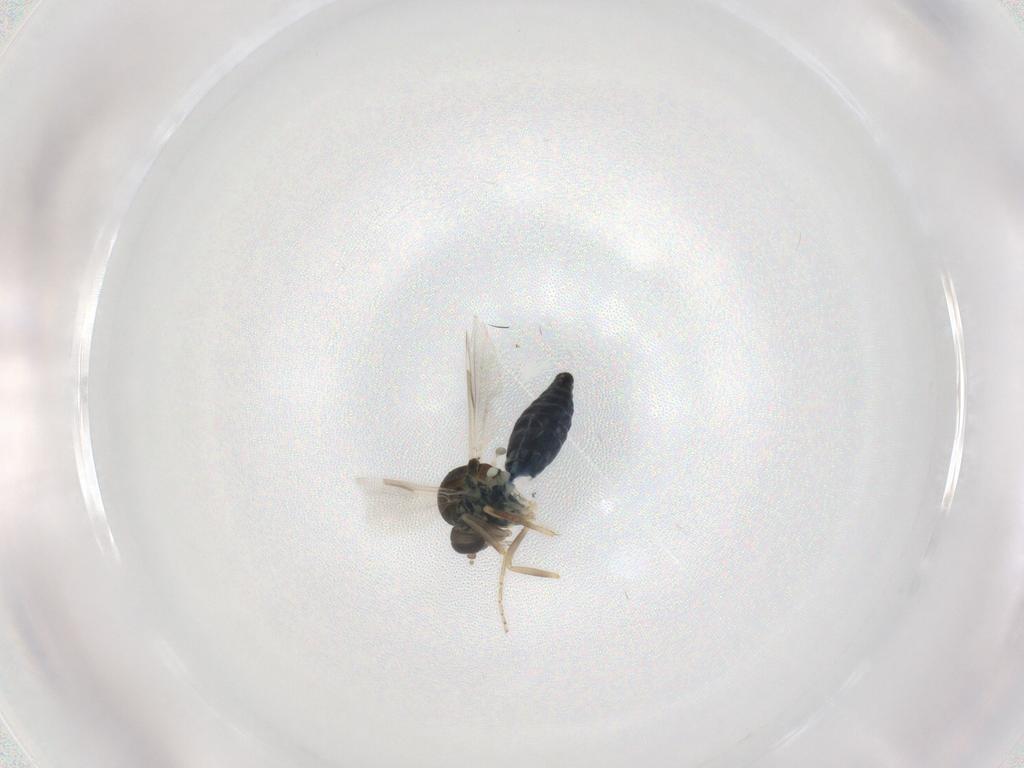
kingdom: Animalia
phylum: Arthropoda
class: Insecta
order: Diptera
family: Ceratopogonidae
